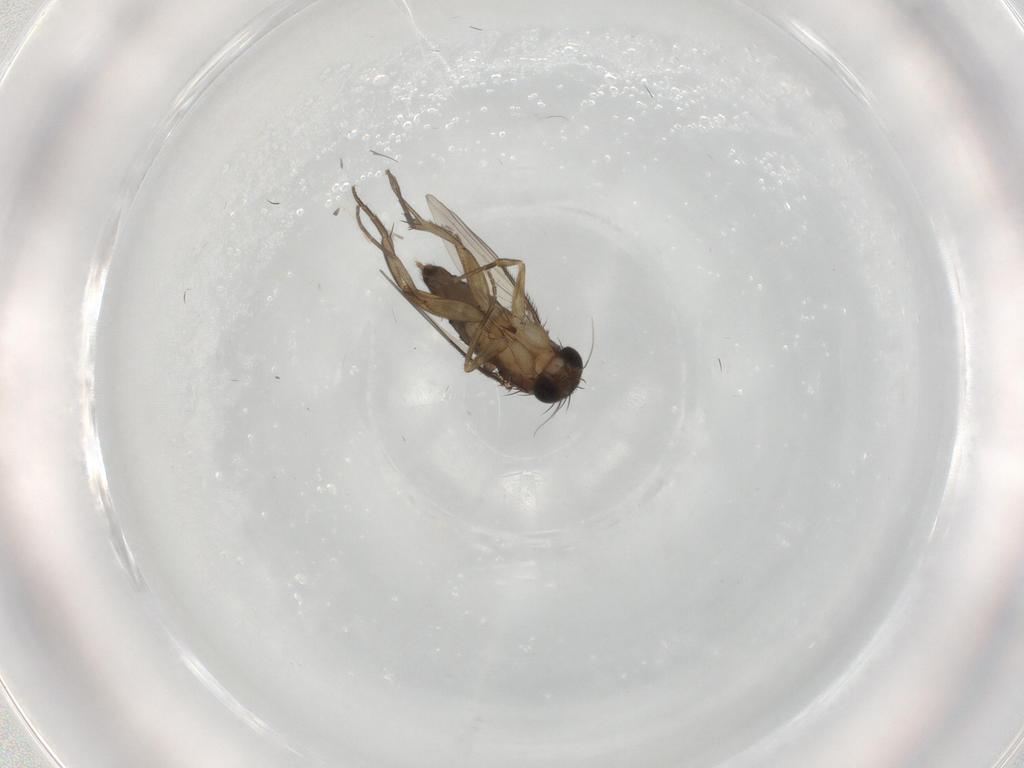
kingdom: Animalia
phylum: Arthropoda
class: Insecta
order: Diptera
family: Phoridae
